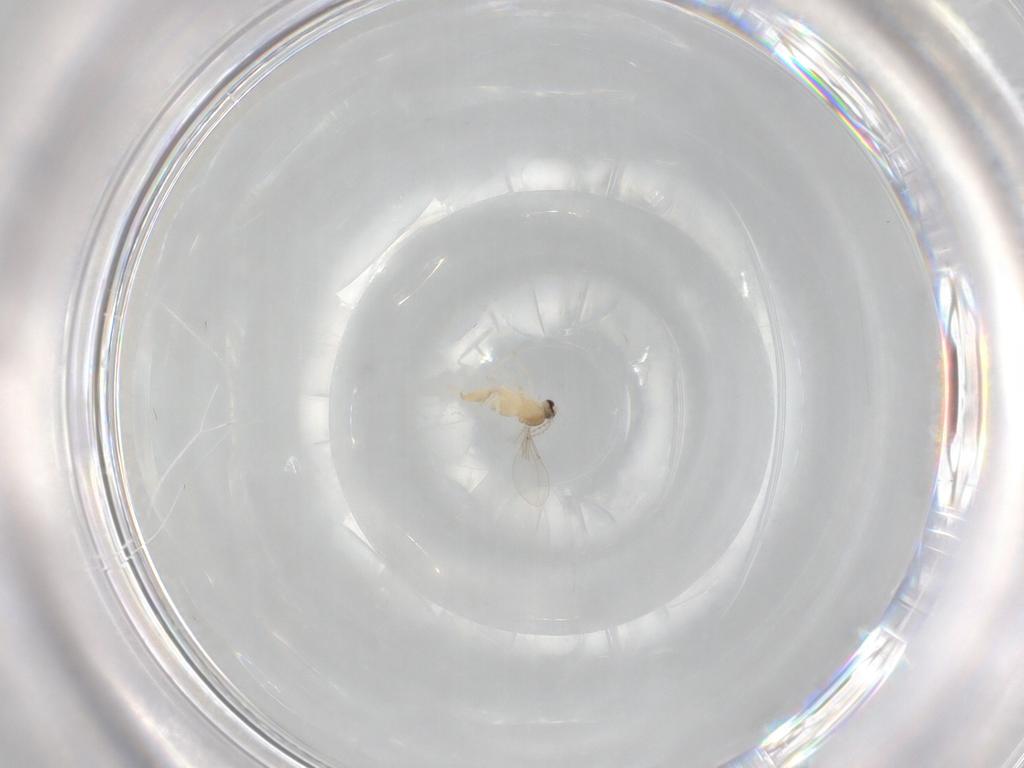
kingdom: Animalia
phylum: Arthropoda
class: Insecta
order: Diptera
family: Cecidomyiidae
